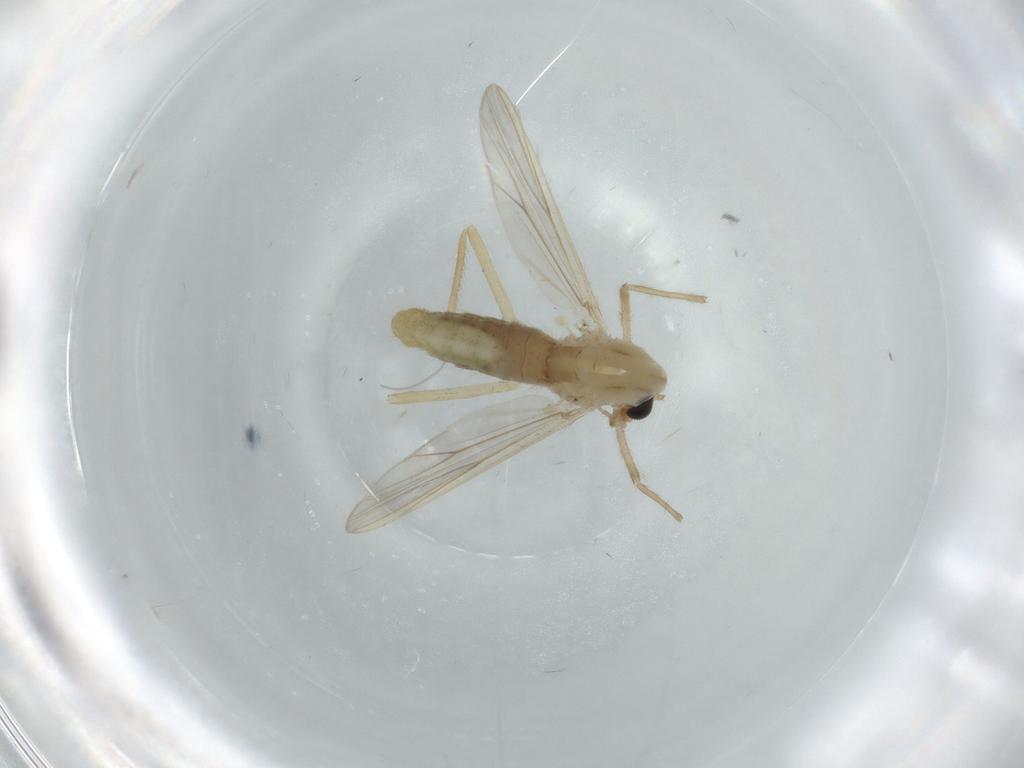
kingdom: Animalia
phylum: Arthropoda
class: Insecta
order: Diptera
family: Chironomidae
